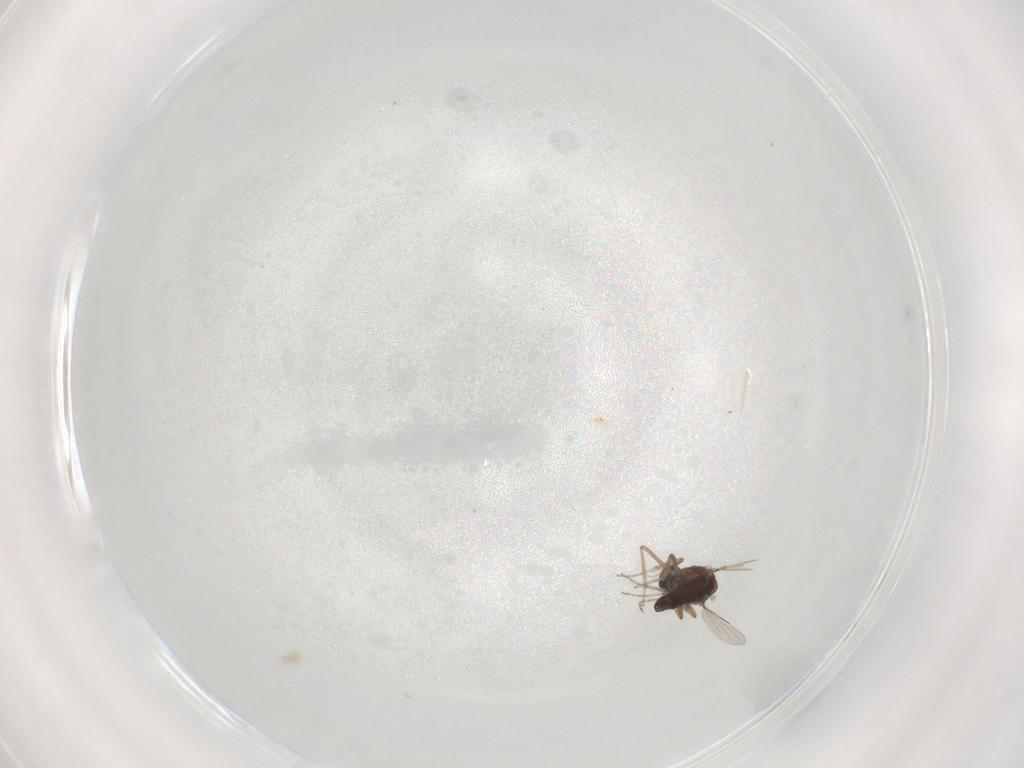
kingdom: Animalia
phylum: Arthropoda
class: Insecta
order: Diptera
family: Ceratopogonidae
